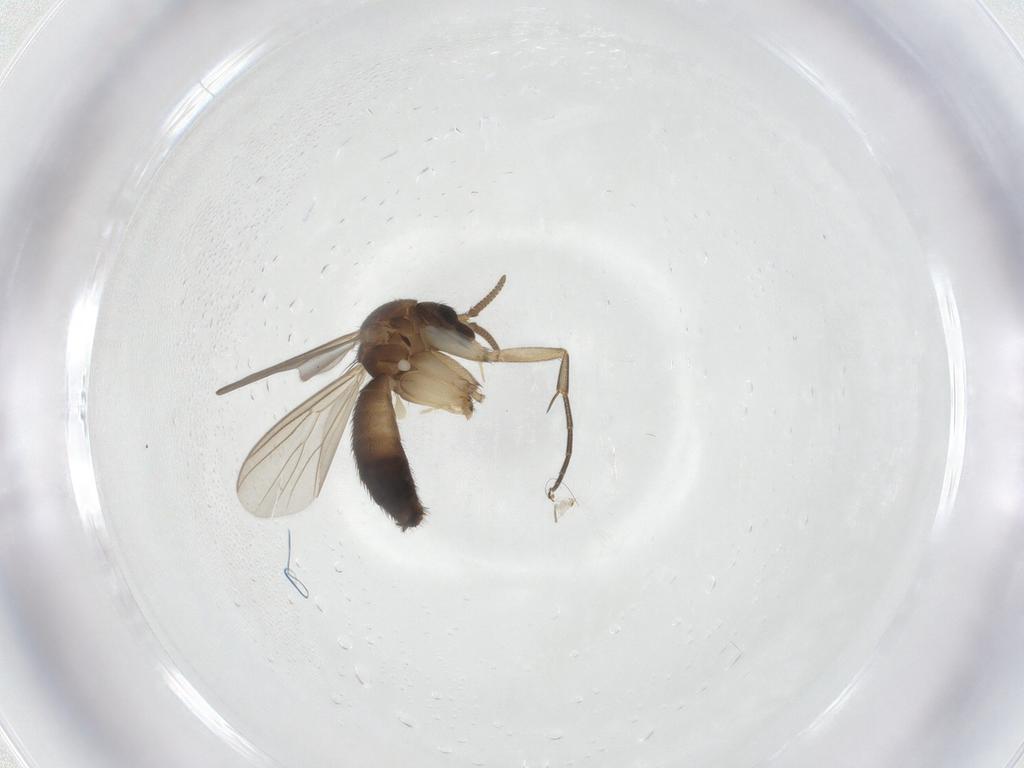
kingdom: Animalia
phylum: Arthropoda
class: Insecta
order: Diptera
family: Mycetophilidae
